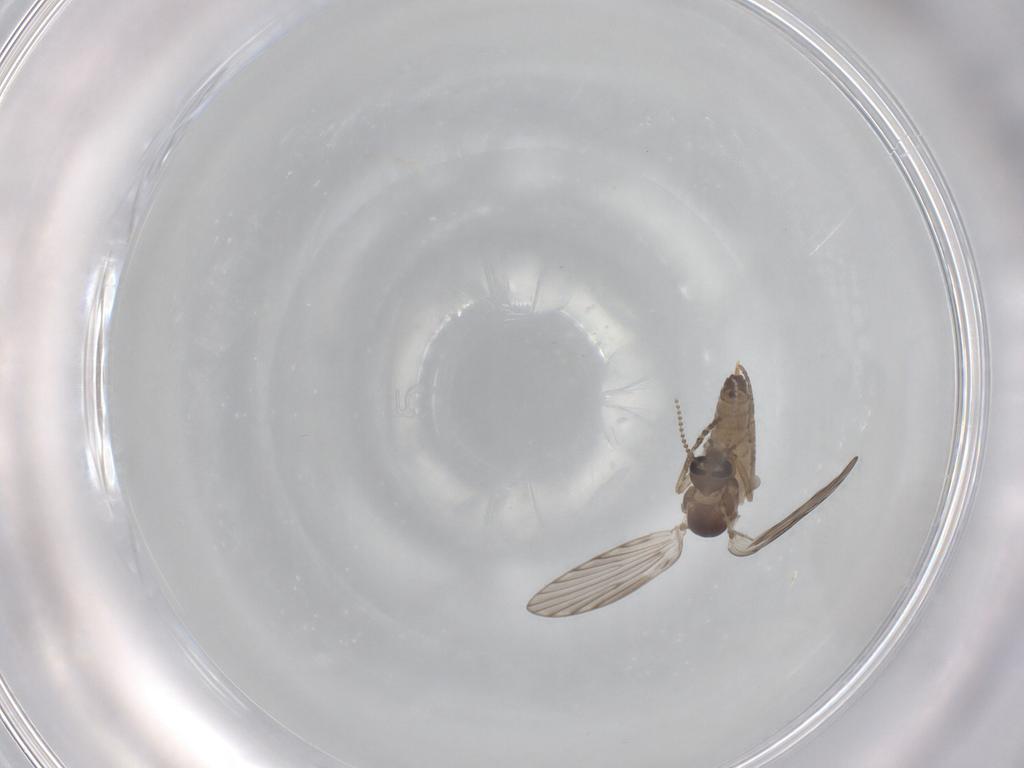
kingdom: Animalia
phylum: Arthropoda
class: Insecta
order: Diptera
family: Psychodidae
